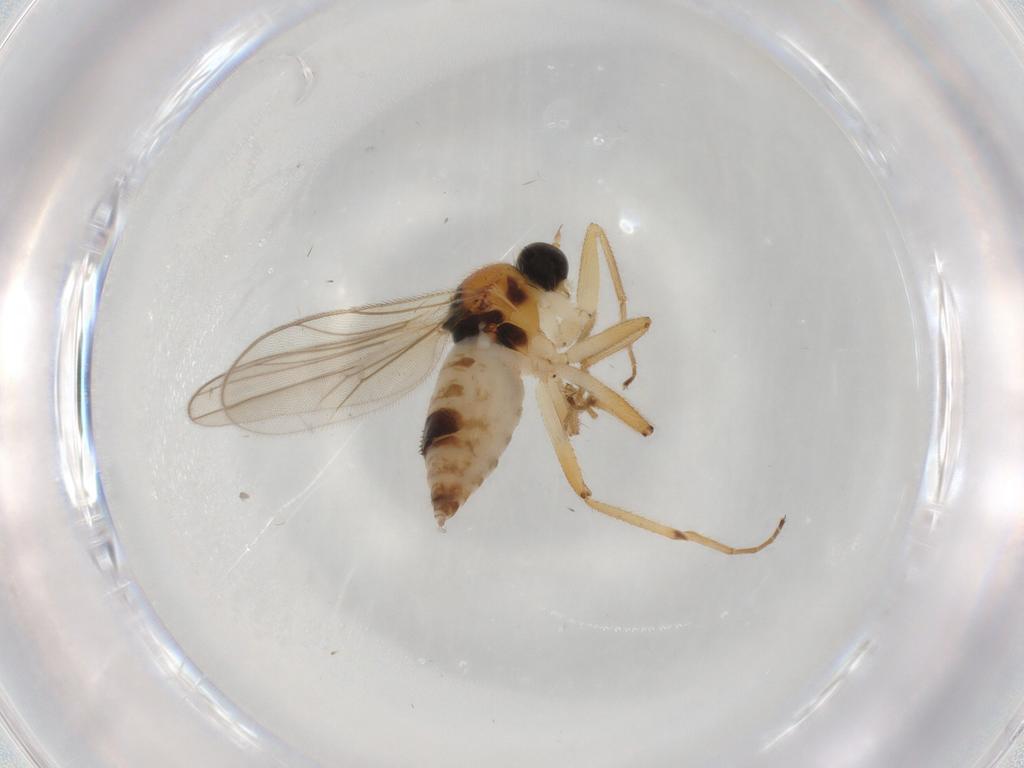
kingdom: Animalia
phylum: Arthropoda
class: Insecta
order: Diptera
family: Hybotidae
